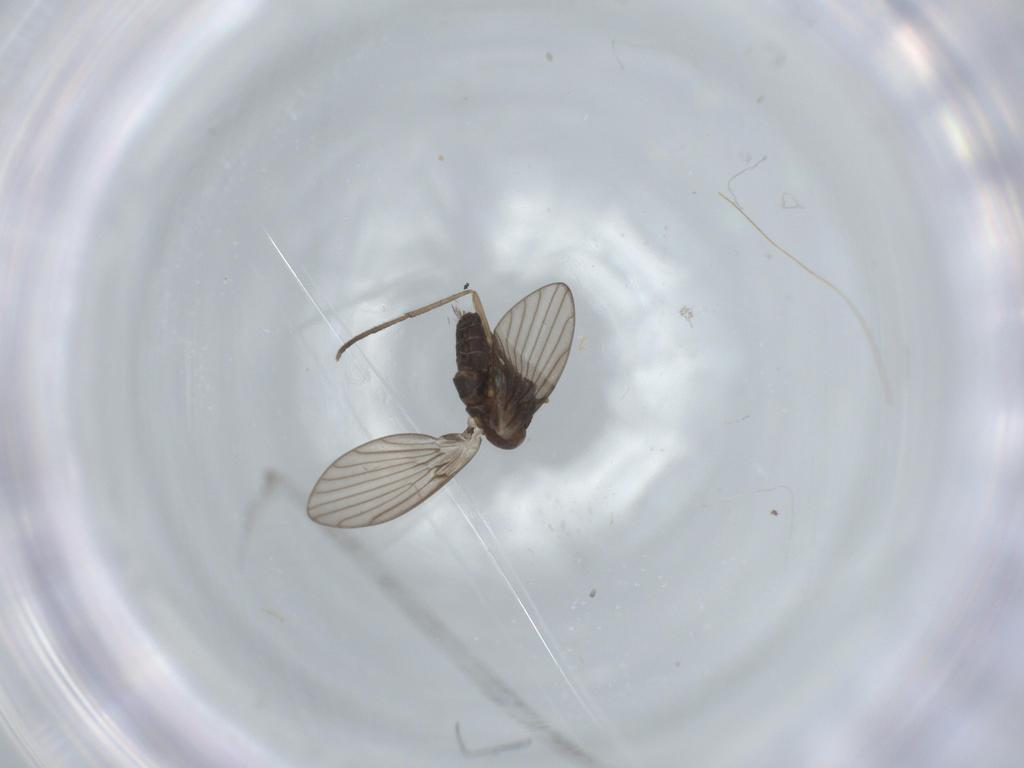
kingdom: Animalia
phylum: Arthropoda
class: Insecta
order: Diptera
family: Psychodidae
